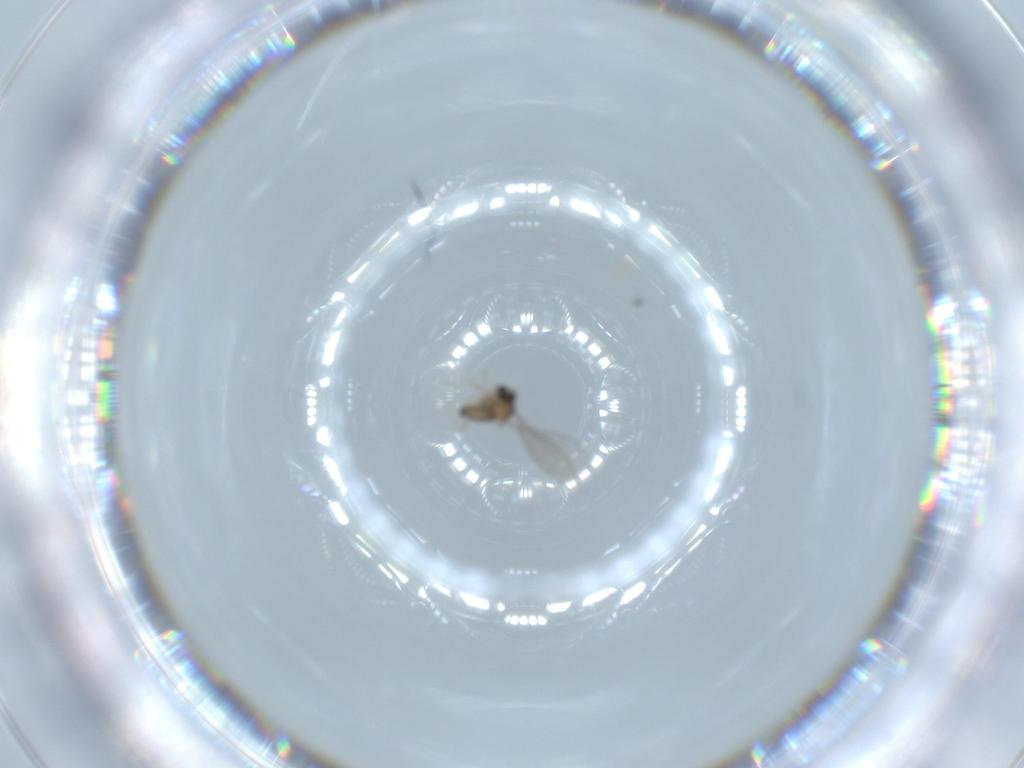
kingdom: Animalia
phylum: Arthropoda
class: Insecta
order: Diptera
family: Cecidomyiidae
